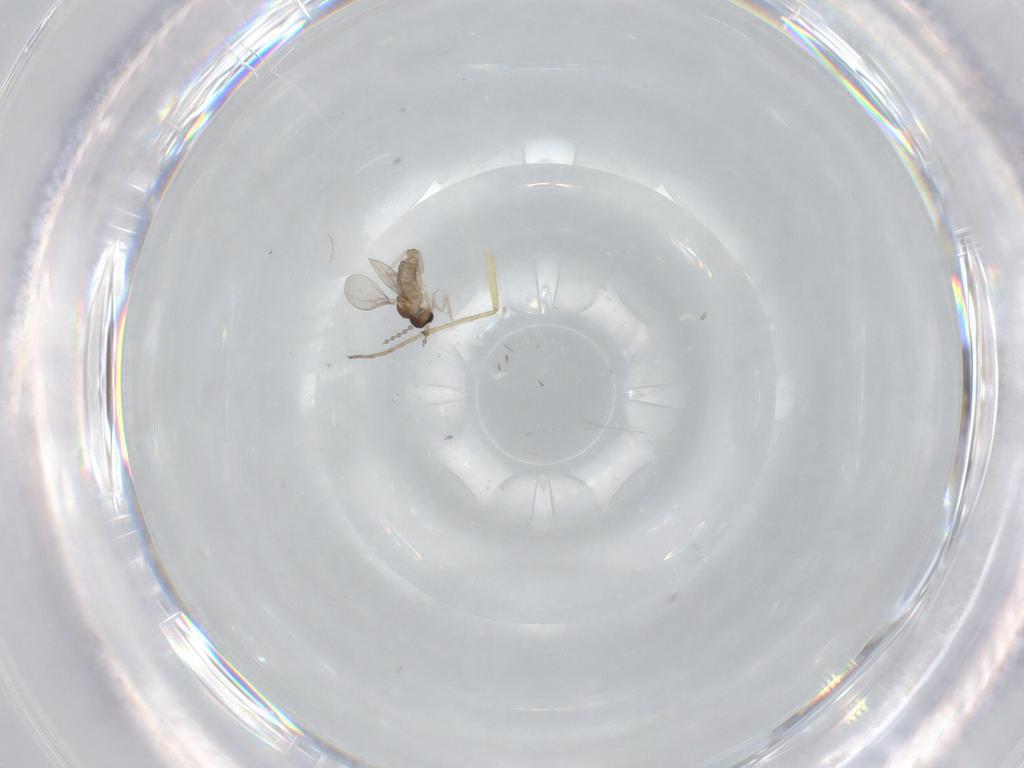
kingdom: Animalia
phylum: Arthropoda
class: Insecta
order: Diptera
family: Cecidomyiidae
